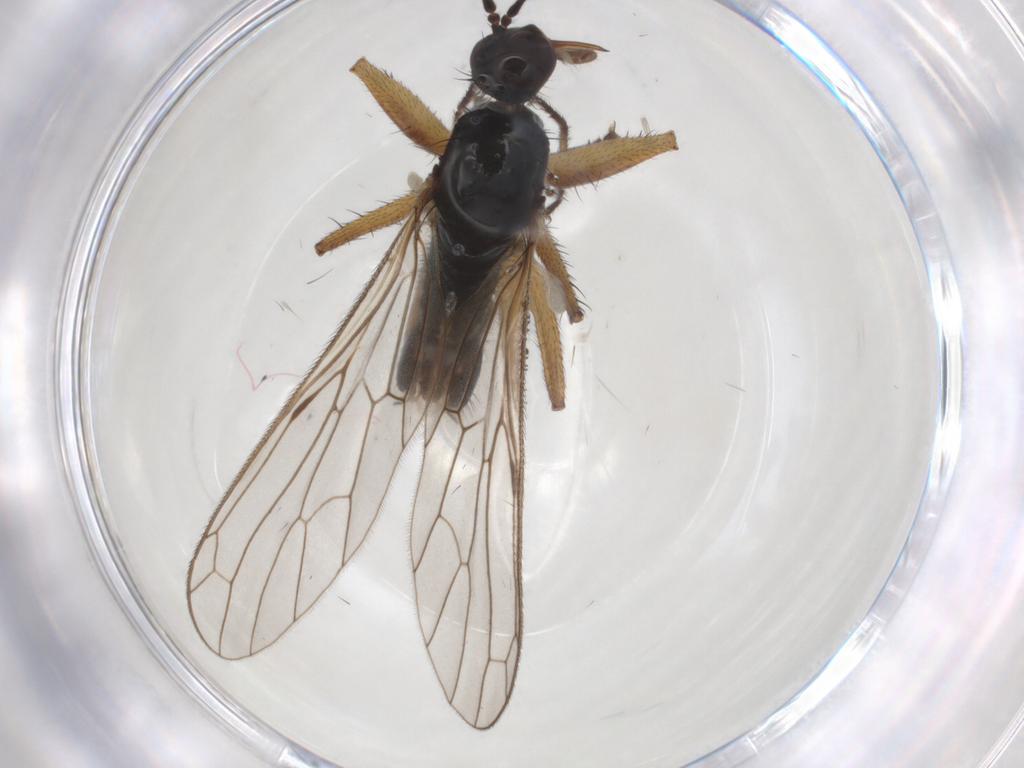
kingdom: Animalia
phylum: Arthropoda
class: Insecta
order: Diptera
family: Empididae
